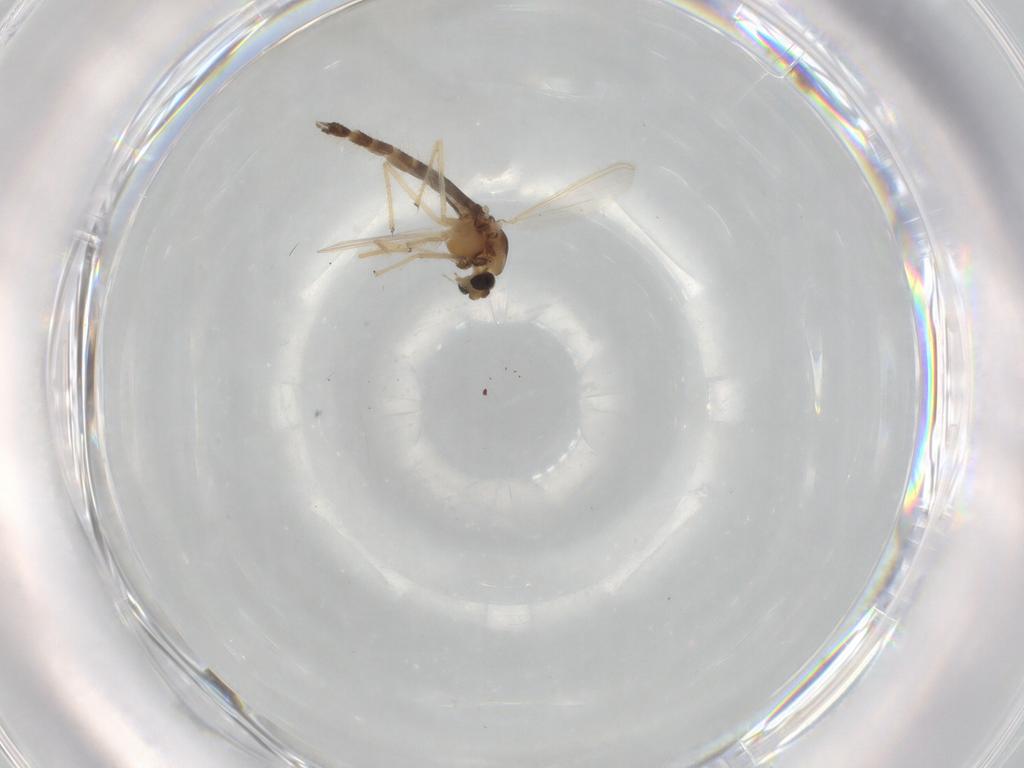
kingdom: Animalia
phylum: Arthropoda
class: Insecta
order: Diptera
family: Chironomidae
